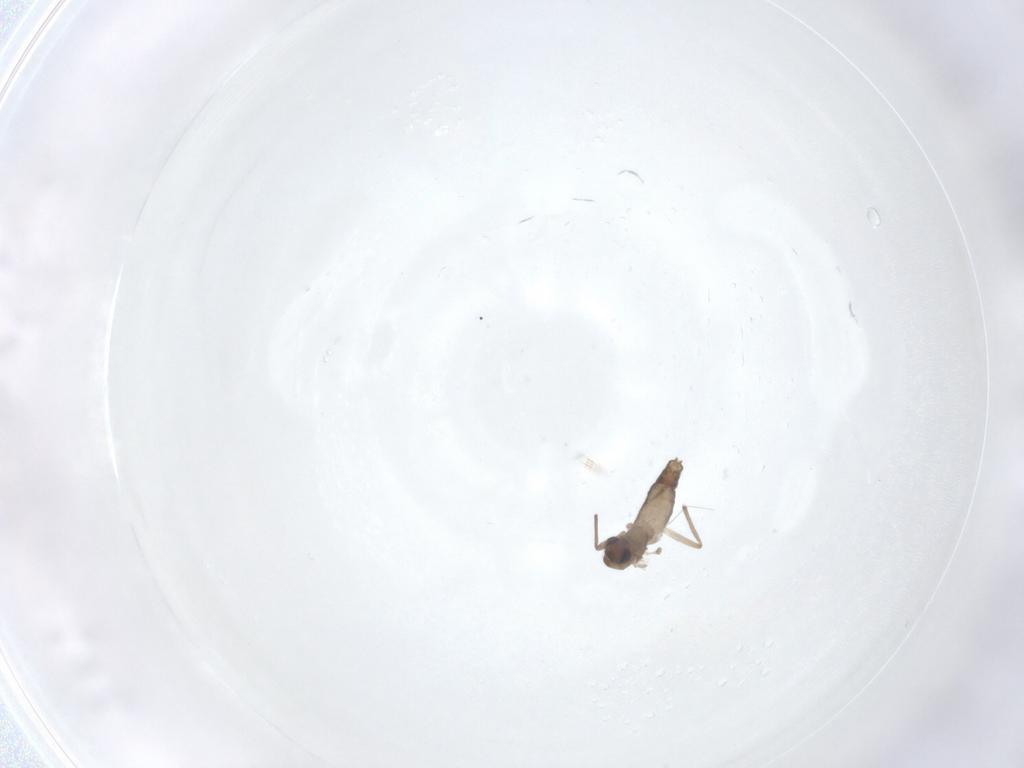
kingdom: Animalia
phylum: Arthropoda
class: Insecta
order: Diptera
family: Chironomidae
